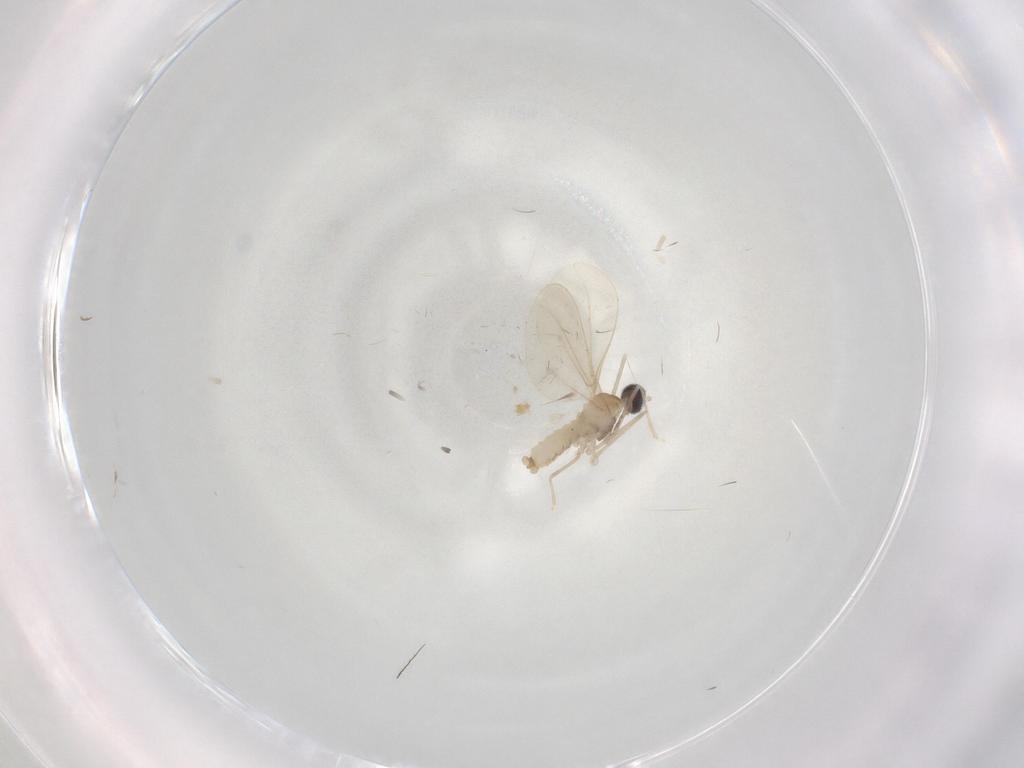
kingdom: Animalia
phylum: Arthropoda
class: Insecta
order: Diptera
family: Cecidomyiidae
